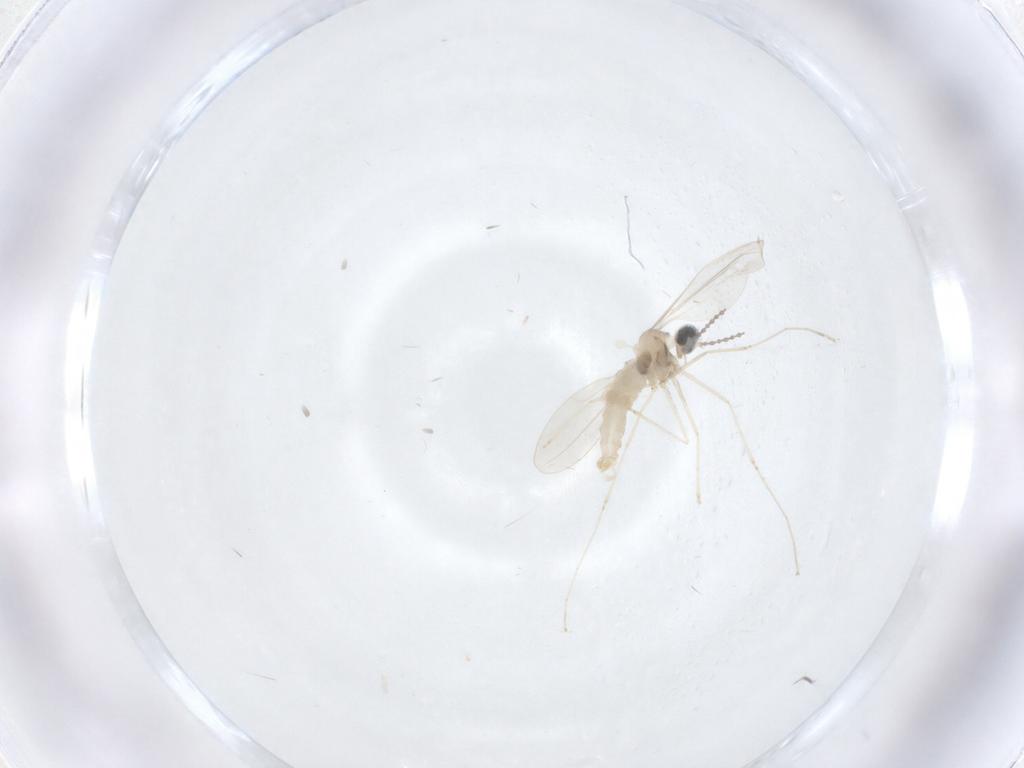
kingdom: Animalia
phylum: Arthropoda
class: Insecta
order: Diptera
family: Cecidomyiidae
